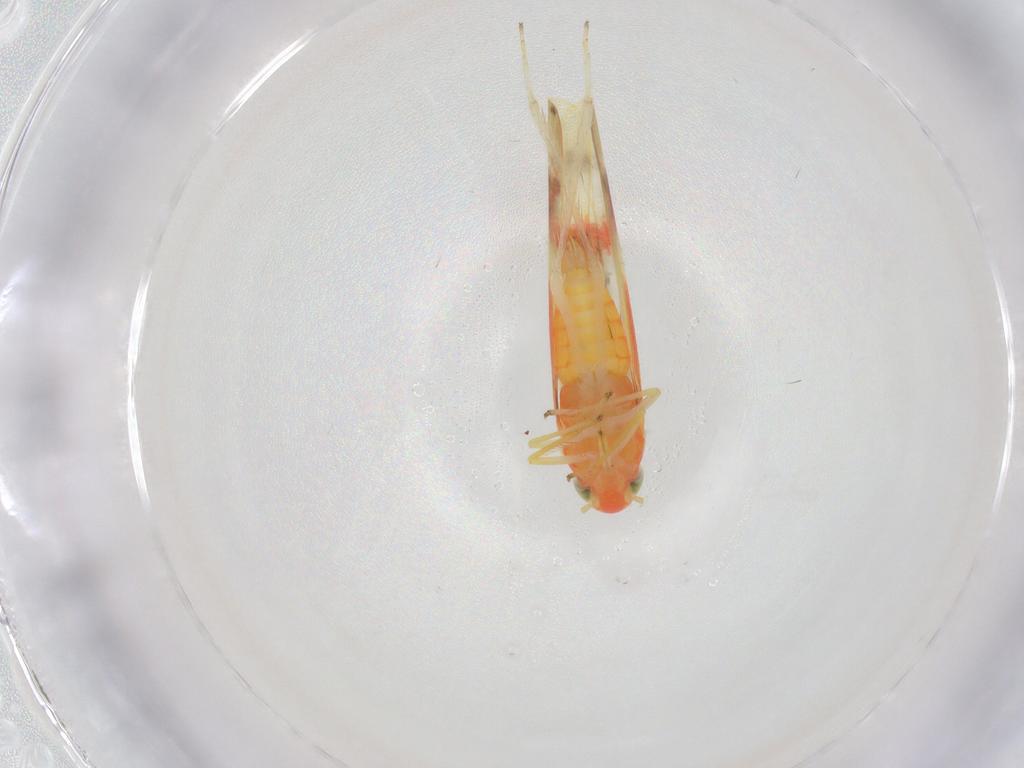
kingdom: Animalia
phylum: Arthropoda
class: Insecta
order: Hemiptera
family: Cicadellidae
